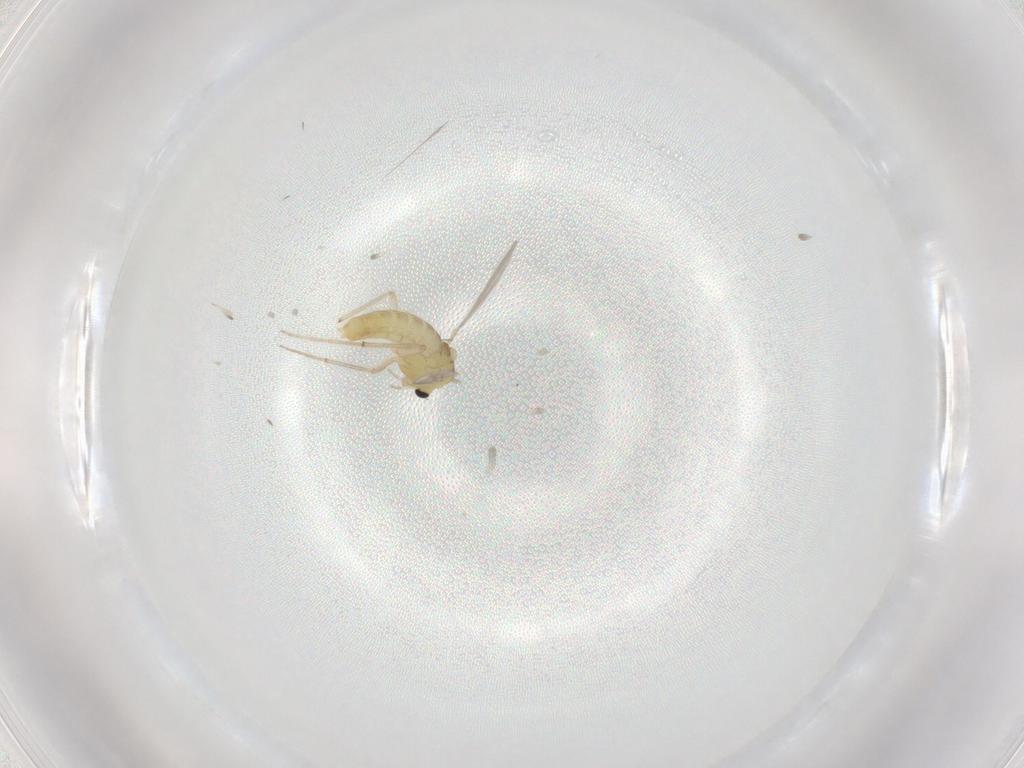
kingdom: Animalia
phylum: Arthropoda
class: Insecta
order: Diptera
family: Chironomidae
